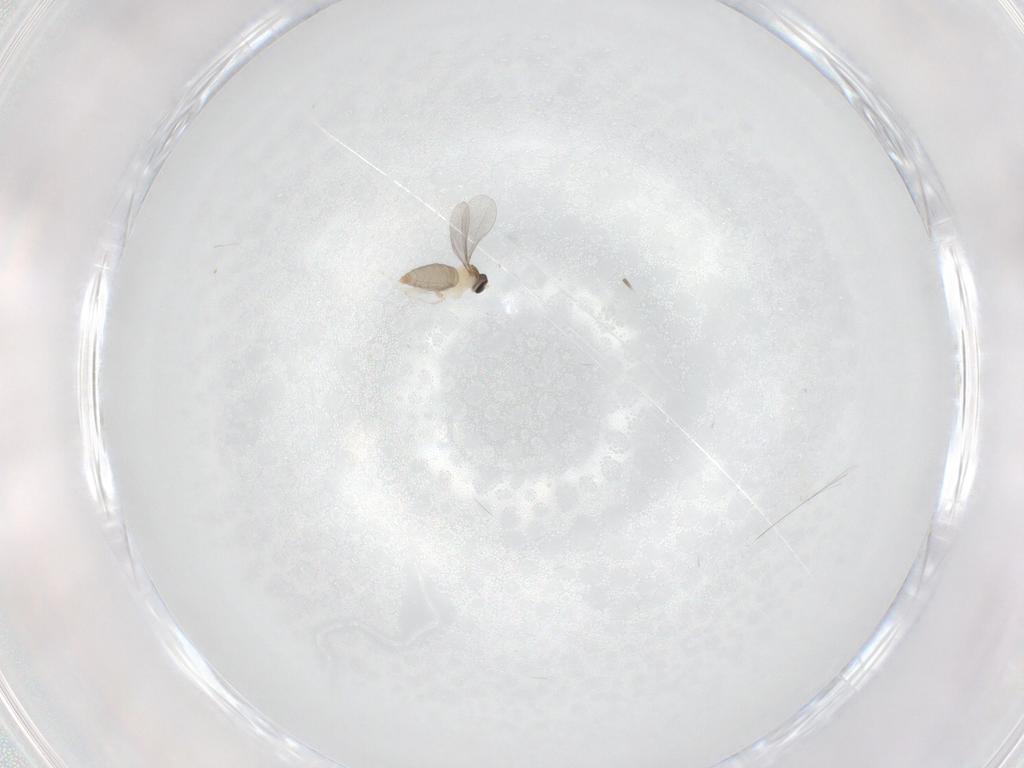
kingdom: Animalia
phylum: Arthropoda
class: Insecta
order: Diptera
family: Cecidomyiidae
